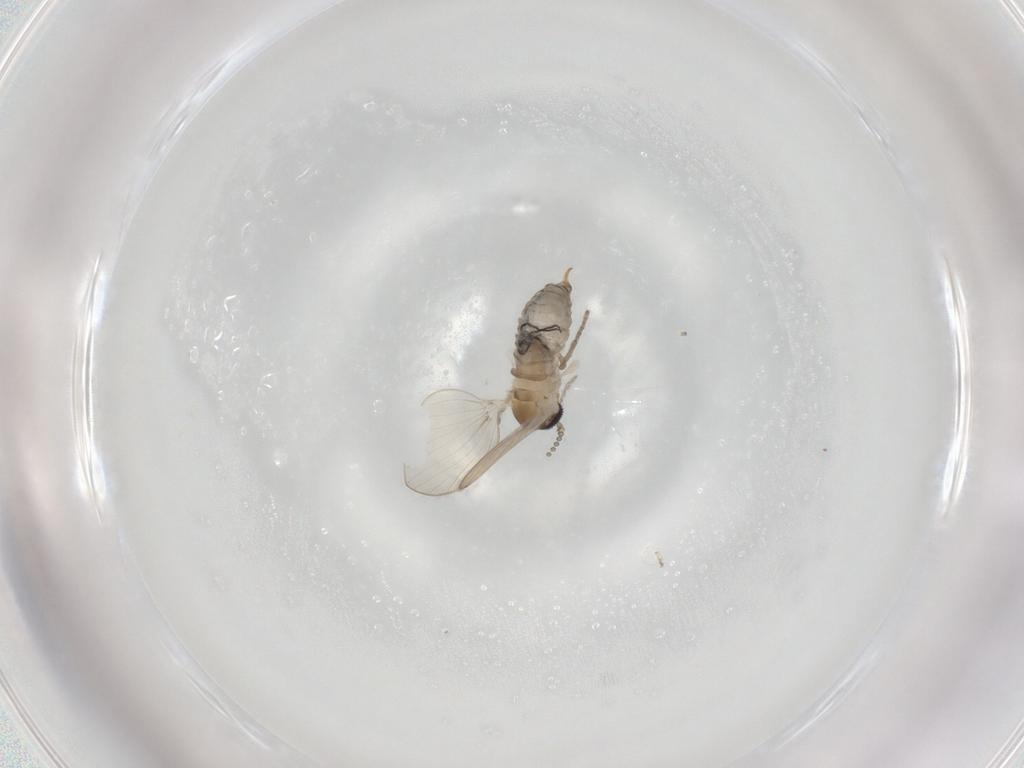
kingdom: Animalia
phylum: Arthropoda
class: Insecta
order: Diptera
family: Psychodidae
